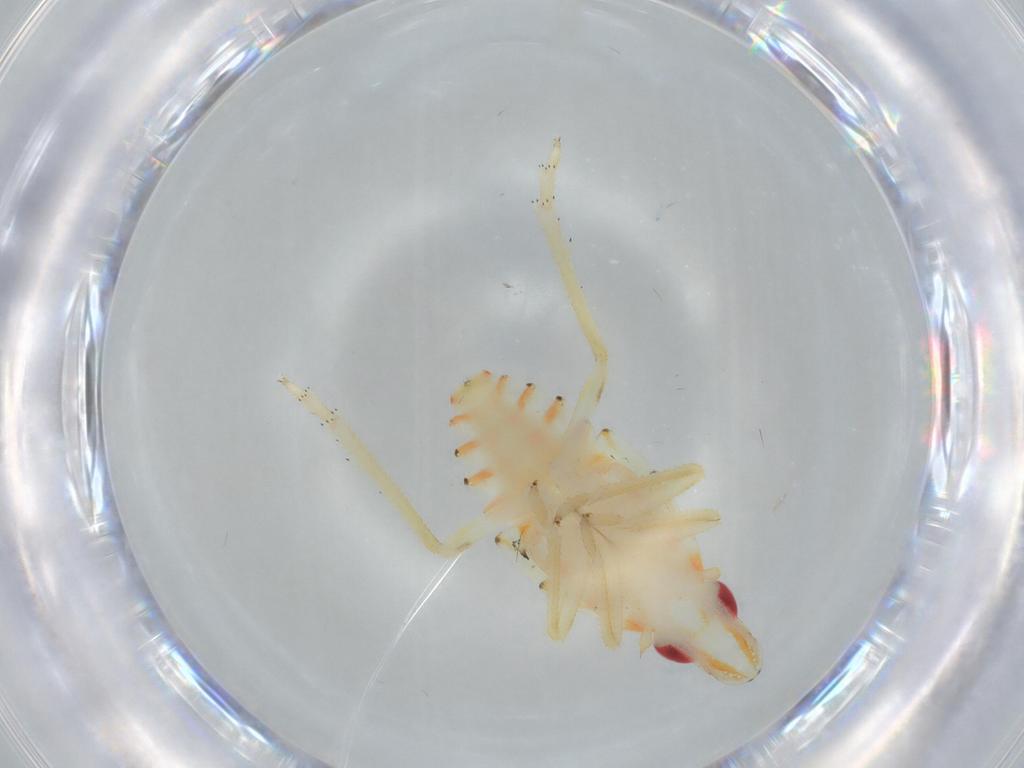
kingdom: Animalia
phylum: Arthropoda
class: Insecta
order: Hemiptera
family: Tropiduchidae
